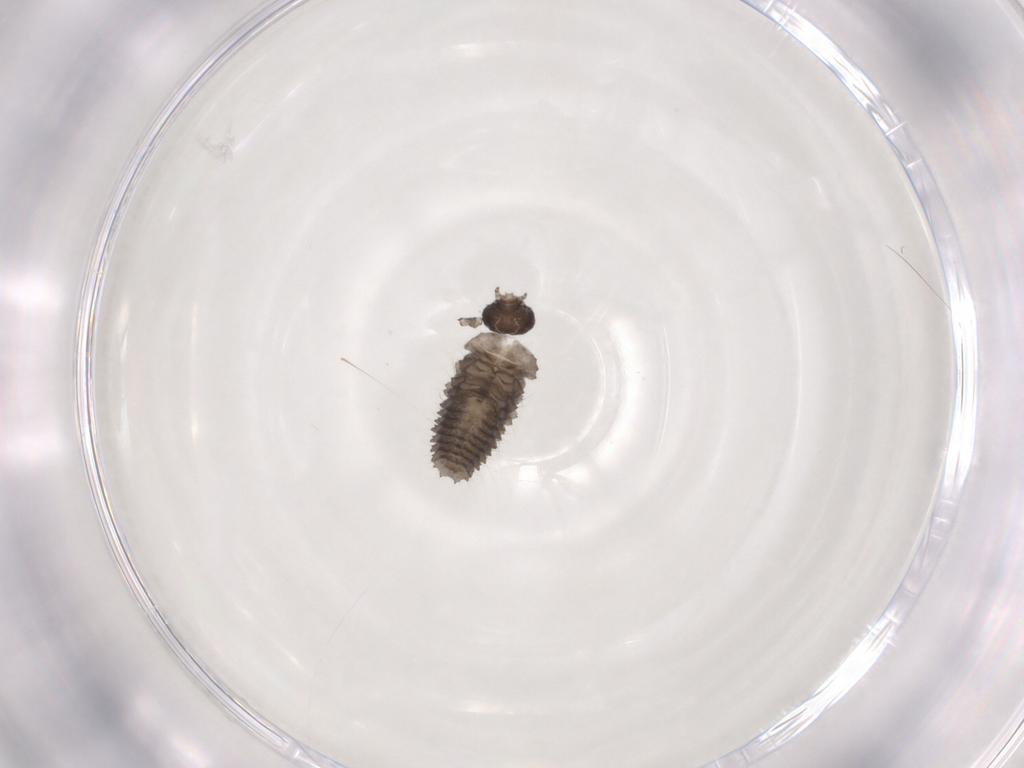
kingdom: Animalia
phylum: Arthropoda
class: Insecta
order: Coleoptera
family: Coccinellidae
